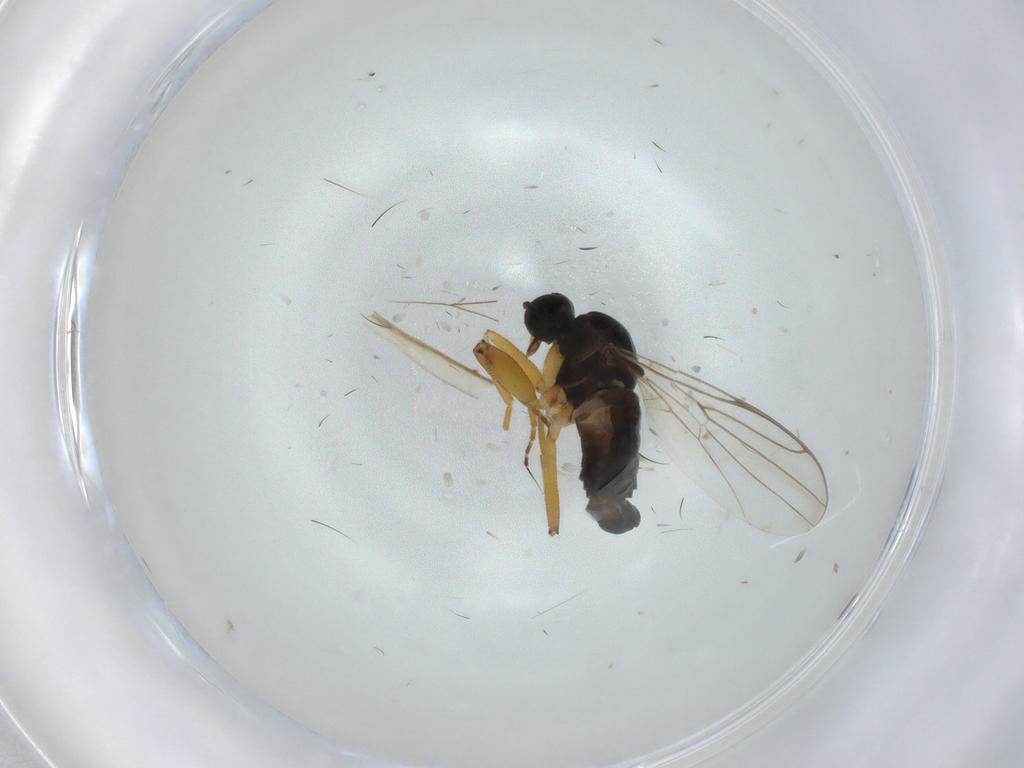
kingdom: Animalia
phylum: Arthropoda
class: Insecta
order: Diptera
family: Hybotidae
